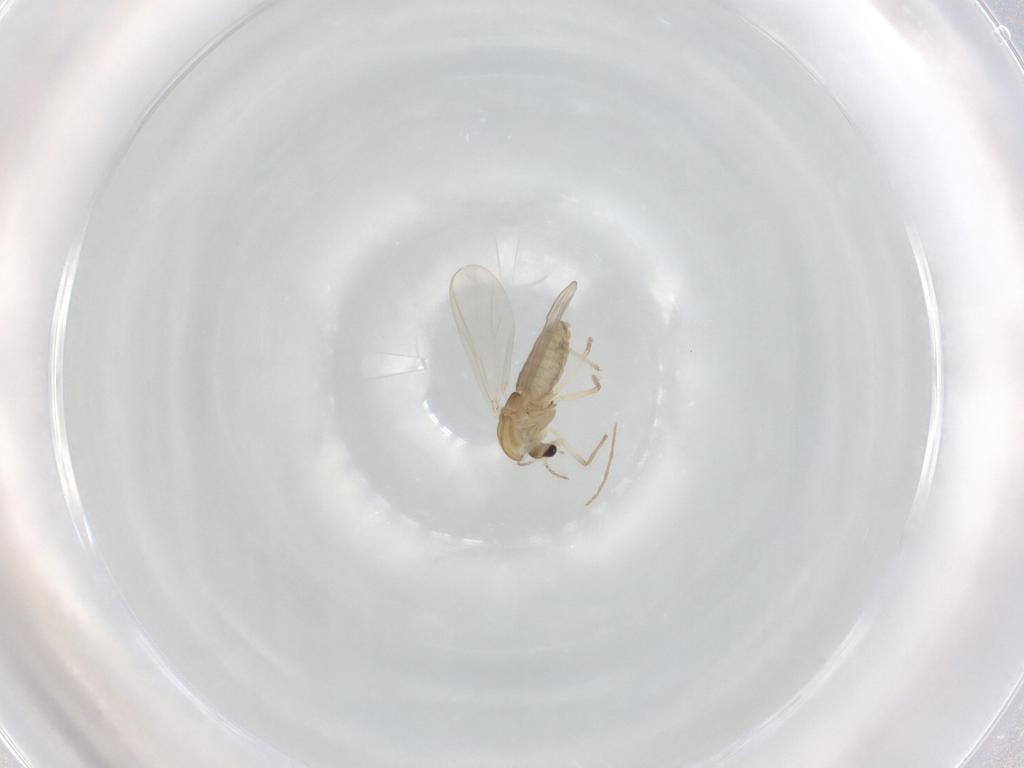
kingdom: Animalia
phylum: Arthropoda
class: Insecta
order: Diptera
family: Chironomidae
